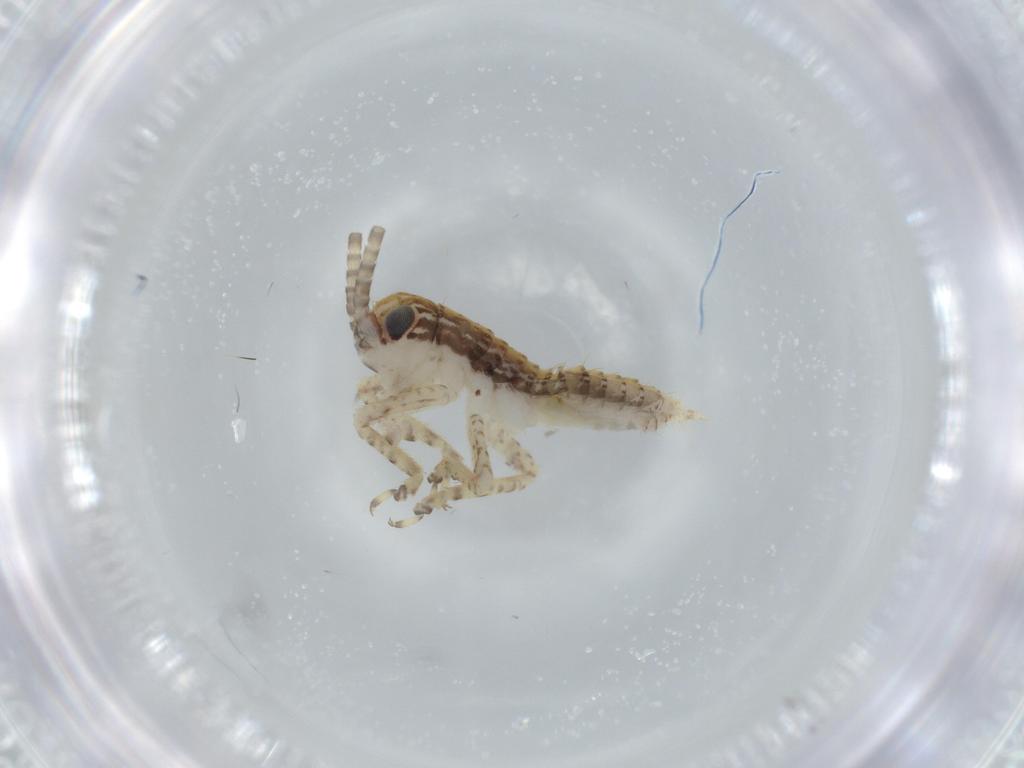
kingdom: Animalia
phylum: Arthropoda
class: Insecta
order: Orthoptera
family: Gryllidae
